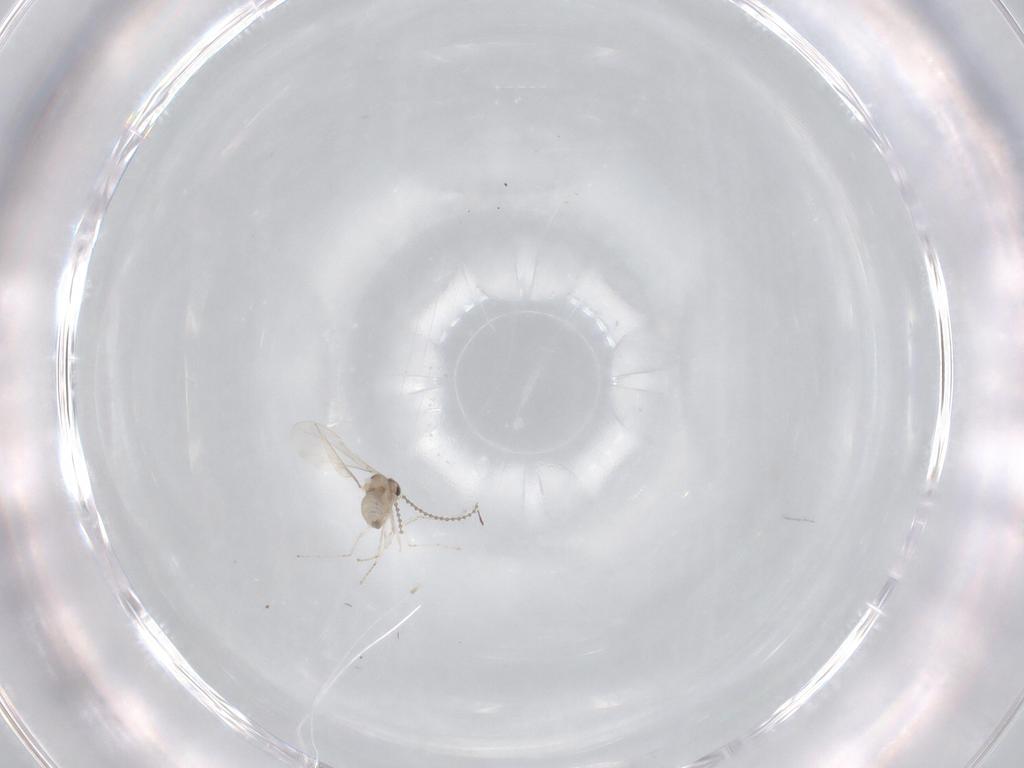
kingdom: Animalia
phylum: Arthropoda
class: Insecta
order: Diptera
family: Cecidomyiidae
